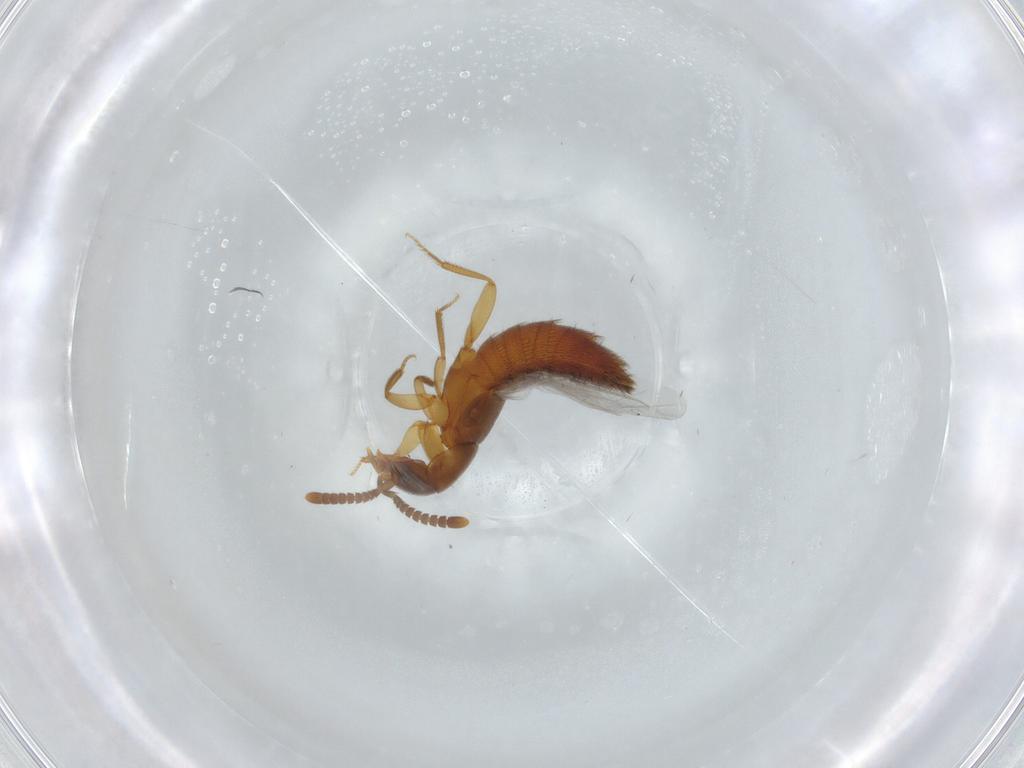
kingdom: Animalia
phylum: Arthropoda
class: Insecta
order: Coleoptera
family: Staphylinidae
